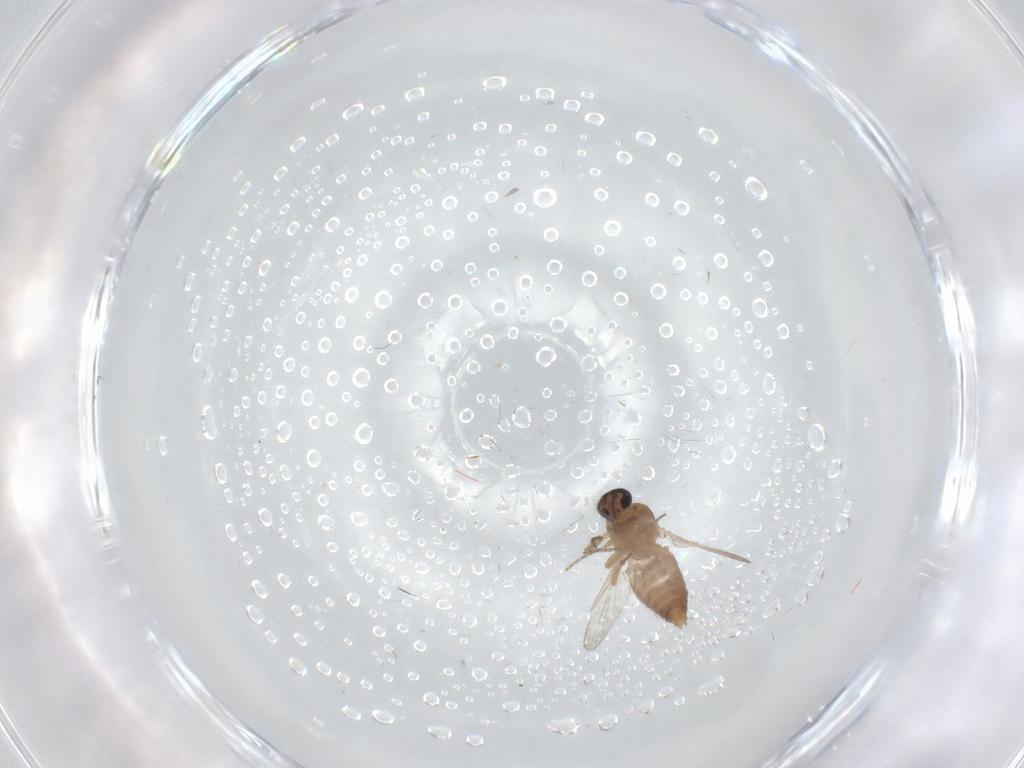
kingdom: Animalia
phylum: Arthropoda
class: Insecta
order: Diptera
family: Ceratopogonidae
